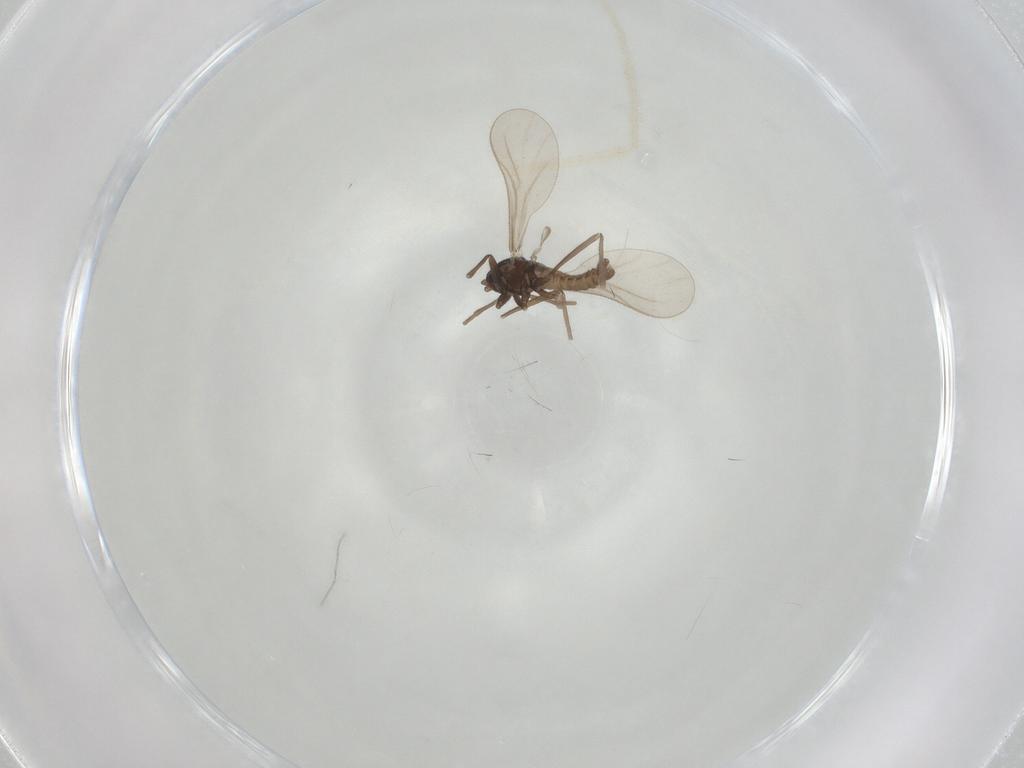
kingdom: Animalia
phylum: Arthropoda
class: Insecta
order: Diptera
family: Chaoboridae
